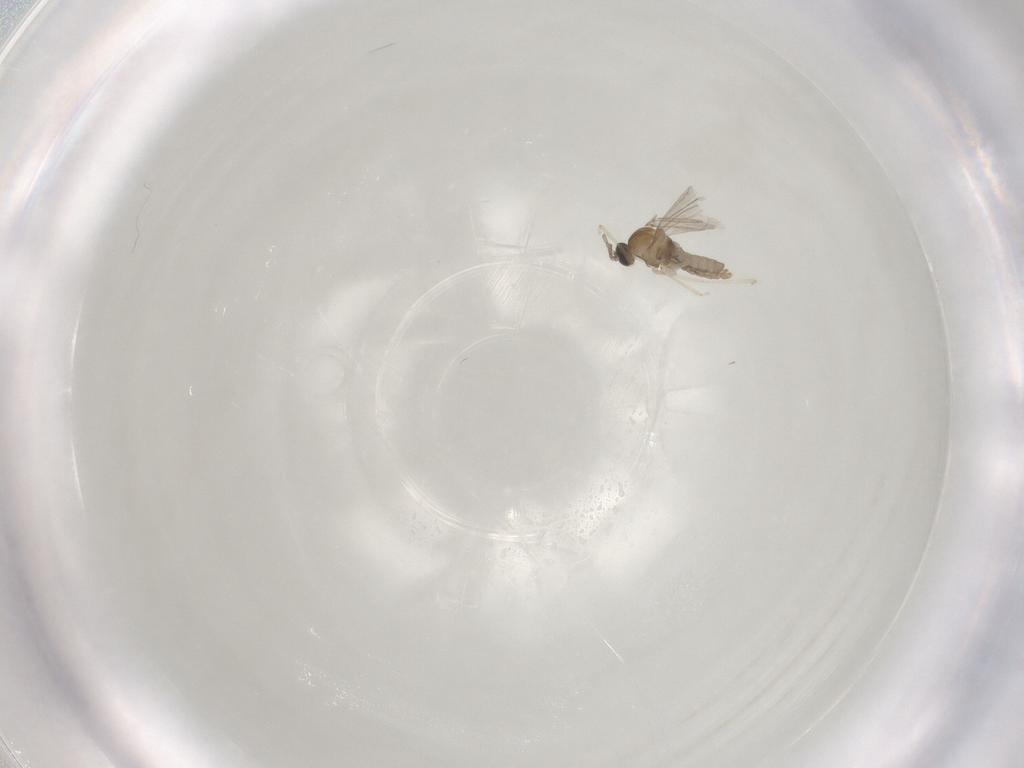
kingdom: Animalia
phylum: Arthropoda
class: Insecta
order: Diptera
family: Cecidomyiidae
